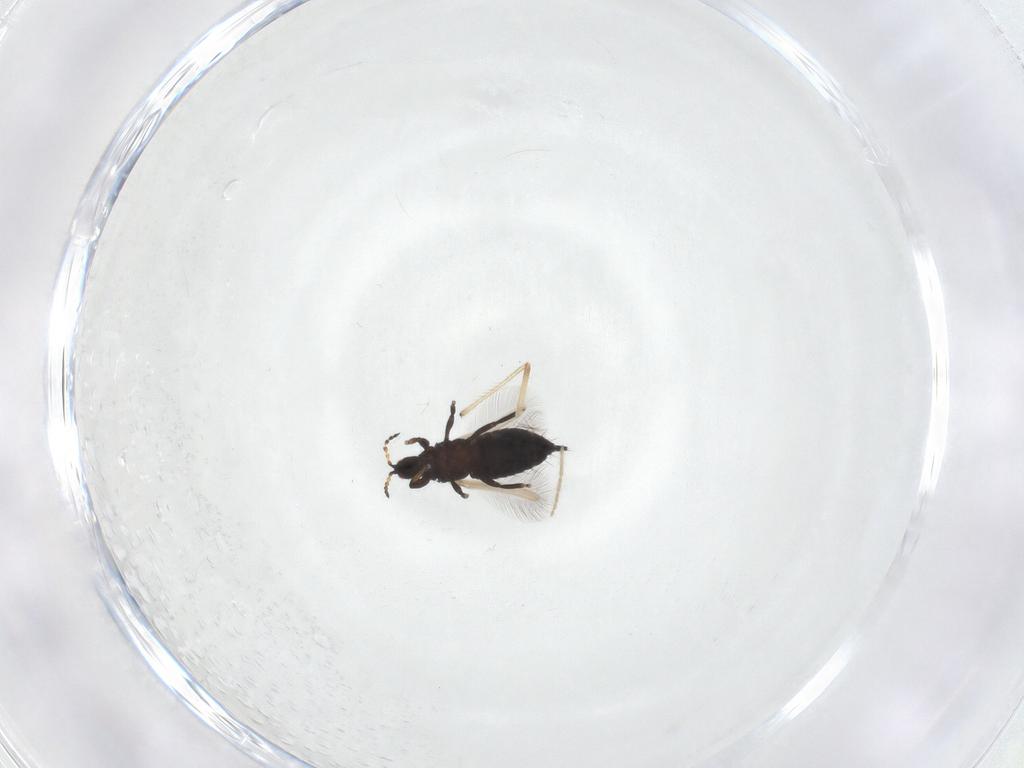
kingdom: Animalia
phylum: Arthropoda
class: Insecta
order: Thysanoptera
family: Phlaeothripidae
